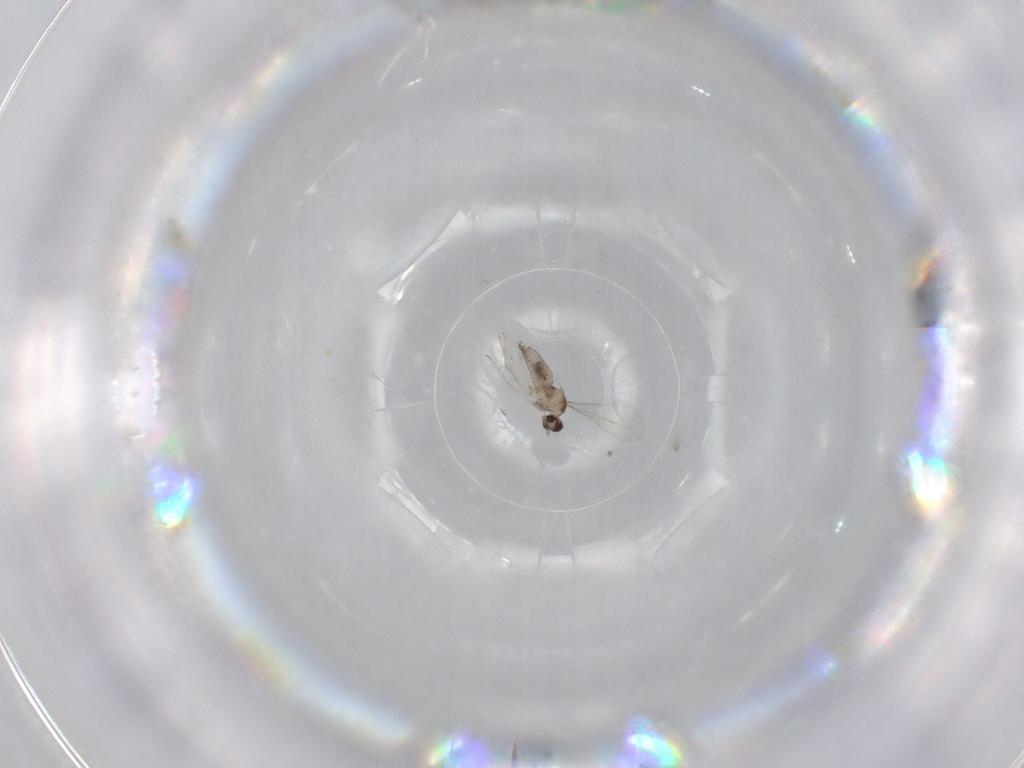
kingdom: Animalia
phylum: Arthropoda
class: Insecta
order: Diptera
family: Cecidomyiidae
